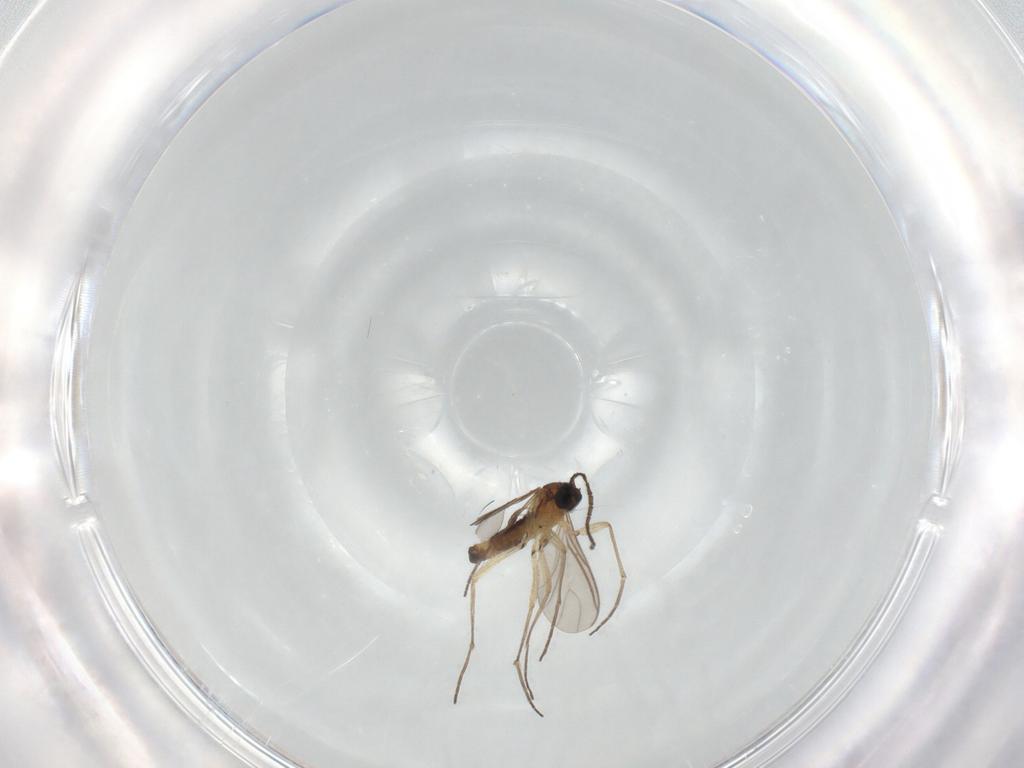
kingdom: Animalia
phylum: Arthropoda
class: Insecta
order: Diptera
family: Sciaridae
